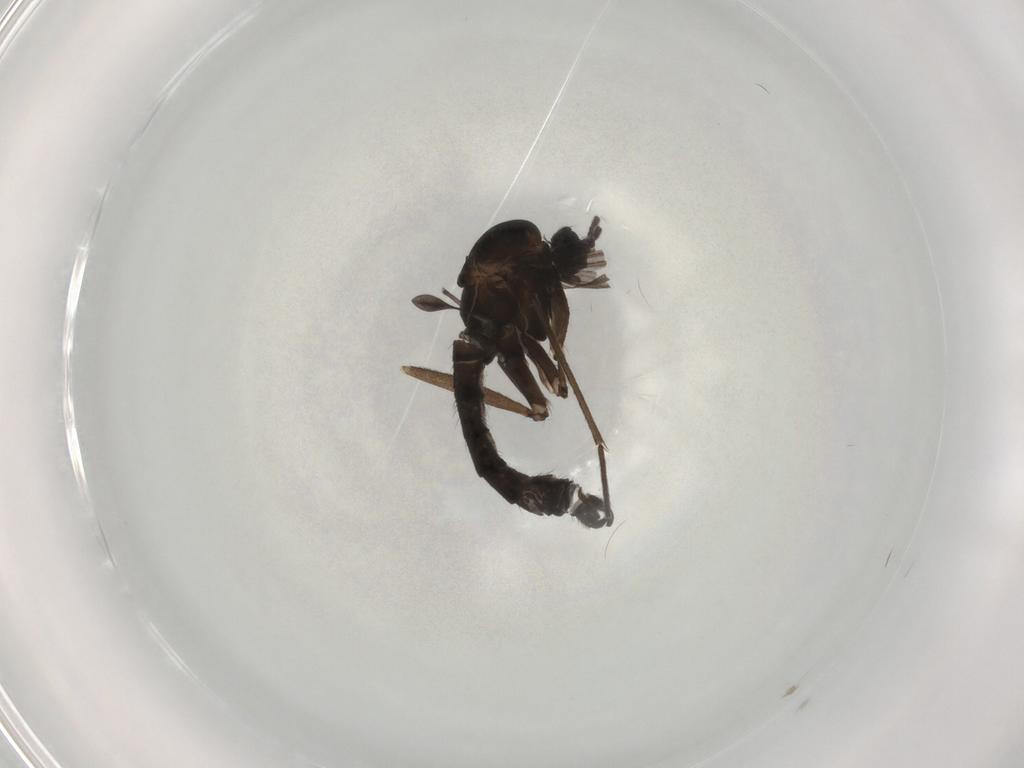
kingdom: Animalia
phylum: Arthropoda
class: Insecta
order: Diptera
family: Sciaridae
